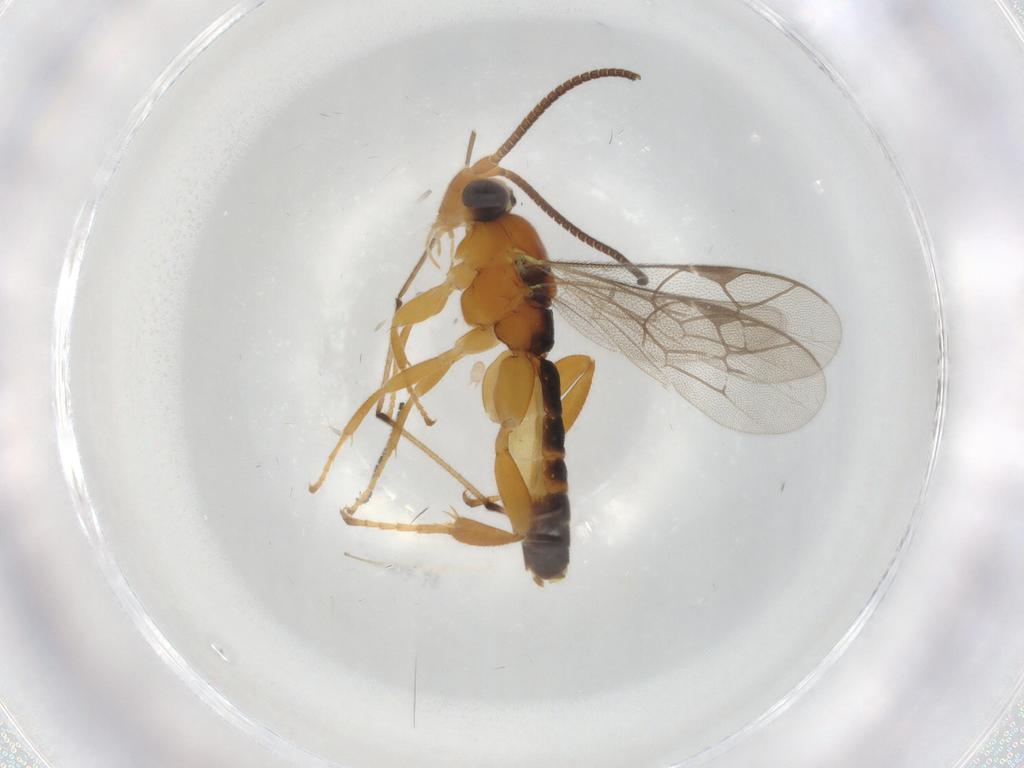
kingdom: Animalia
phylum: Arthropoda
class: Insecta
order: Hymenoptera
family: Ichneumonidae
